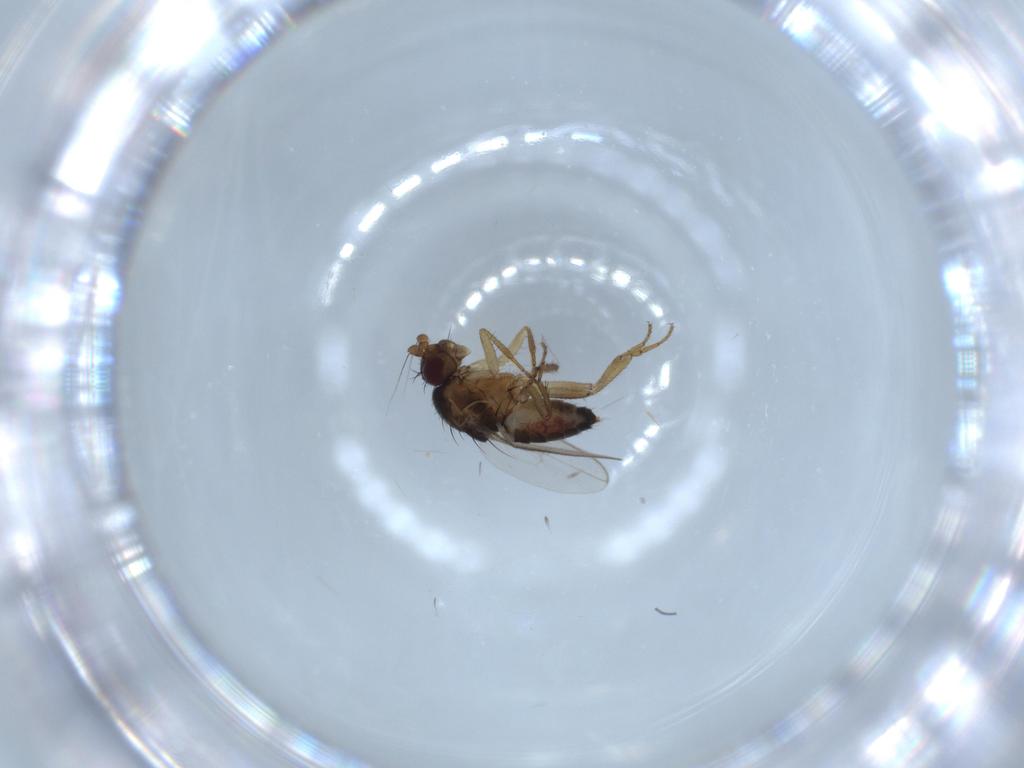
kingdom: Animalia
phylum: Arthropoda
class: Insecta
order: Diptera
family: Sphaeroceridae
